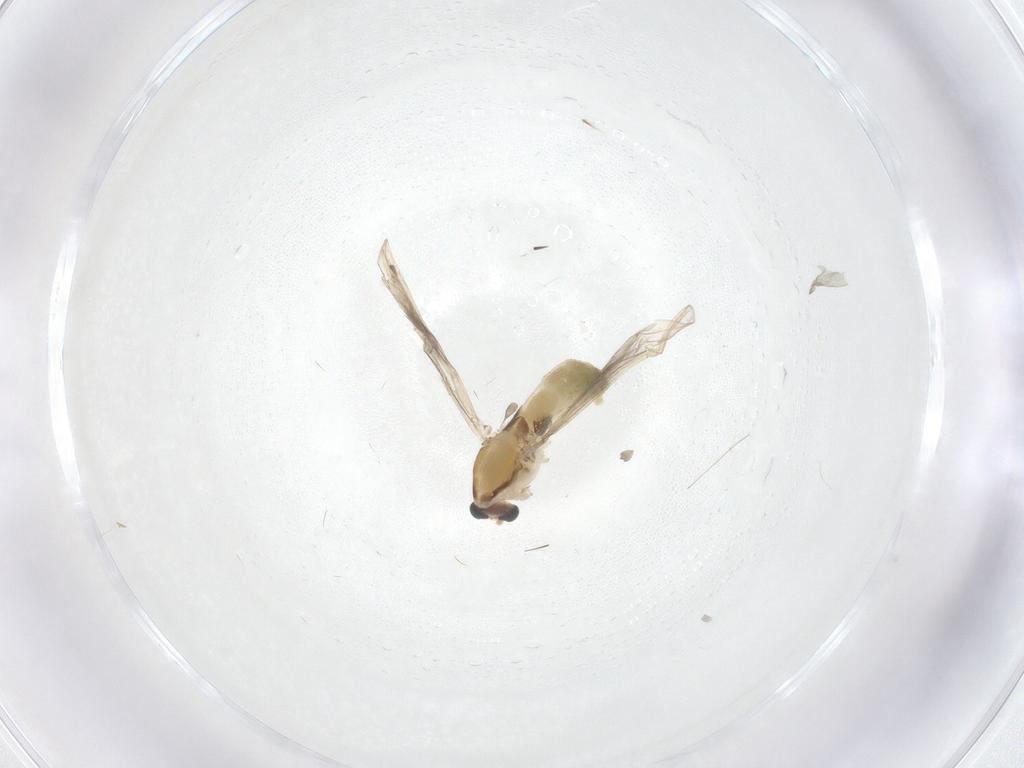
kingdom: Animalia
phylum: Arthropoda
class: Insecta
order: Diptera
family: Chironomidae
